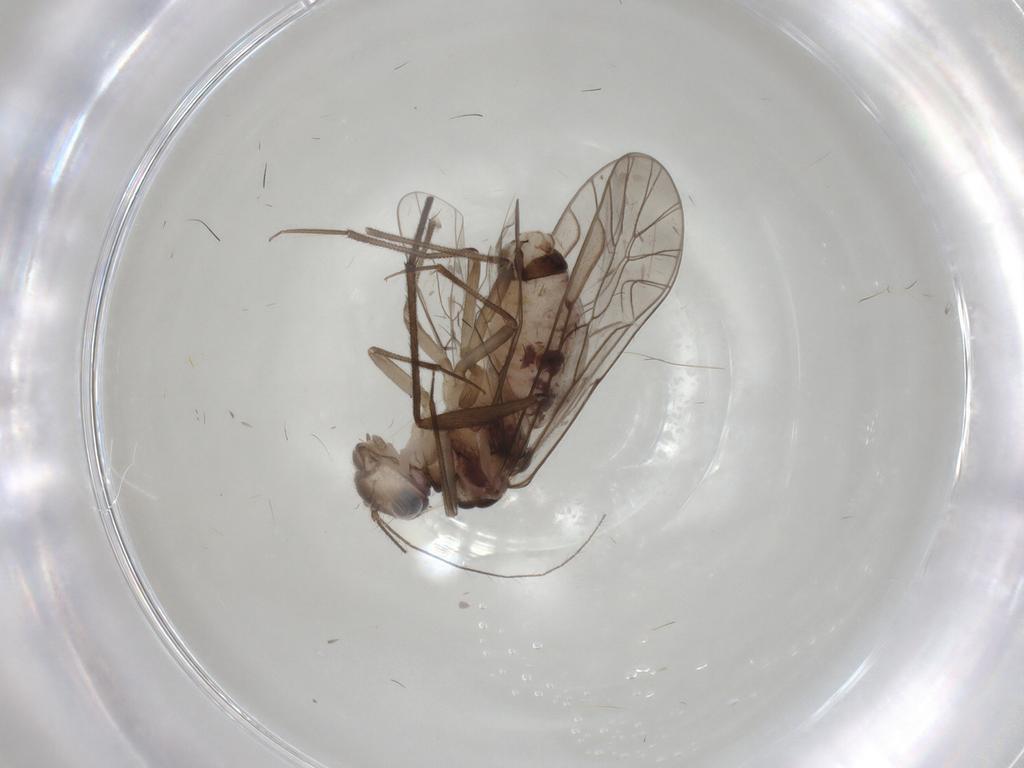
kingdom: Animalia
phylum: Arthropoda
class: Insecta
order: Psocodea
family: Lachesillidae
